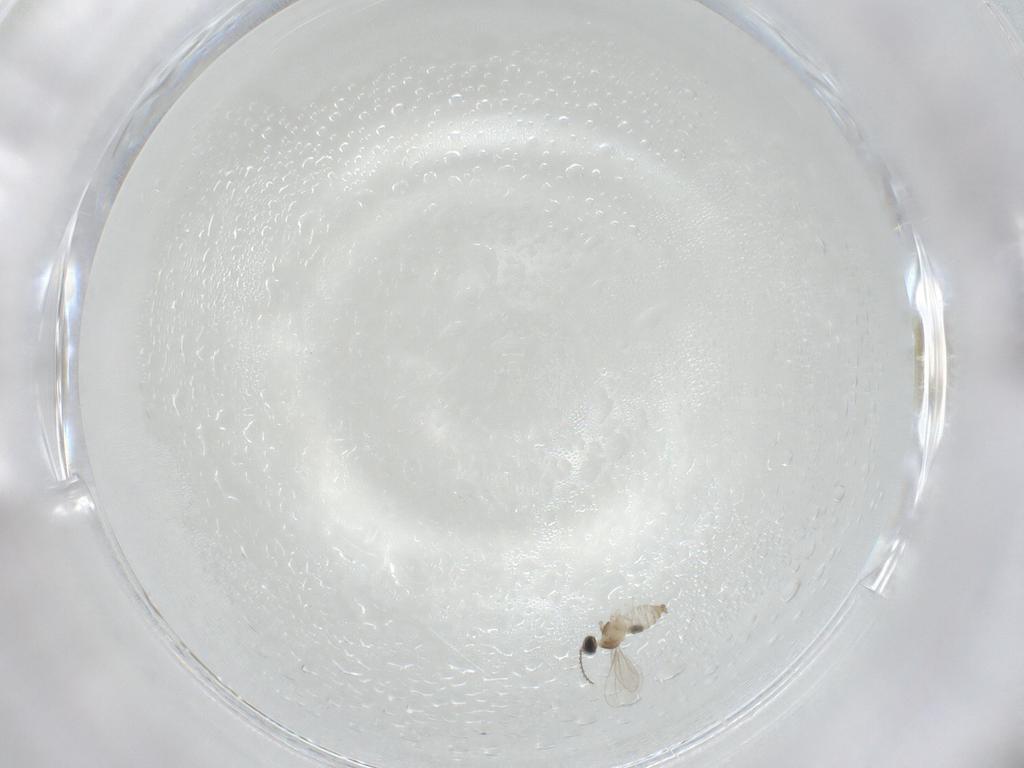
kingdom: Animalia
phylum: Arthropoda
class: Insecta
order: Diptera
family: Cecidomyiidae
